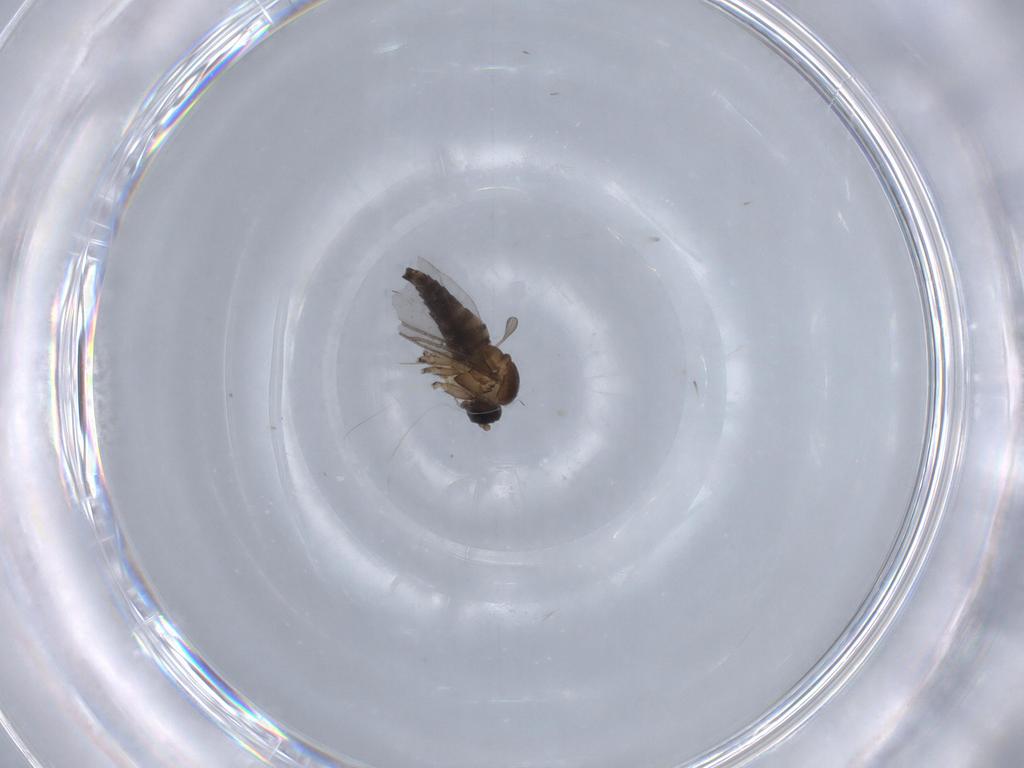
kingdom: Animalia
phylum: Arthropoda
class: Insecta
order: Diptera
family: Sciaridae
